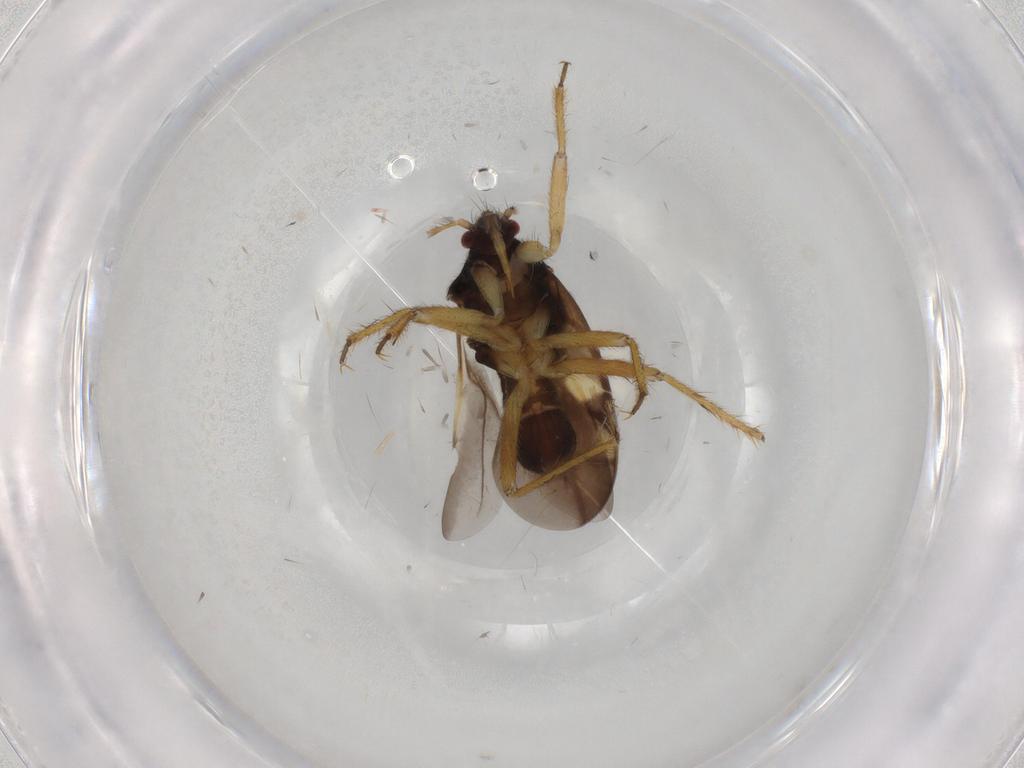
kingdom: Animalia
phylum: Arthropoda
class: Insecta
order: Hemiptera
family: Ceratocombidae
